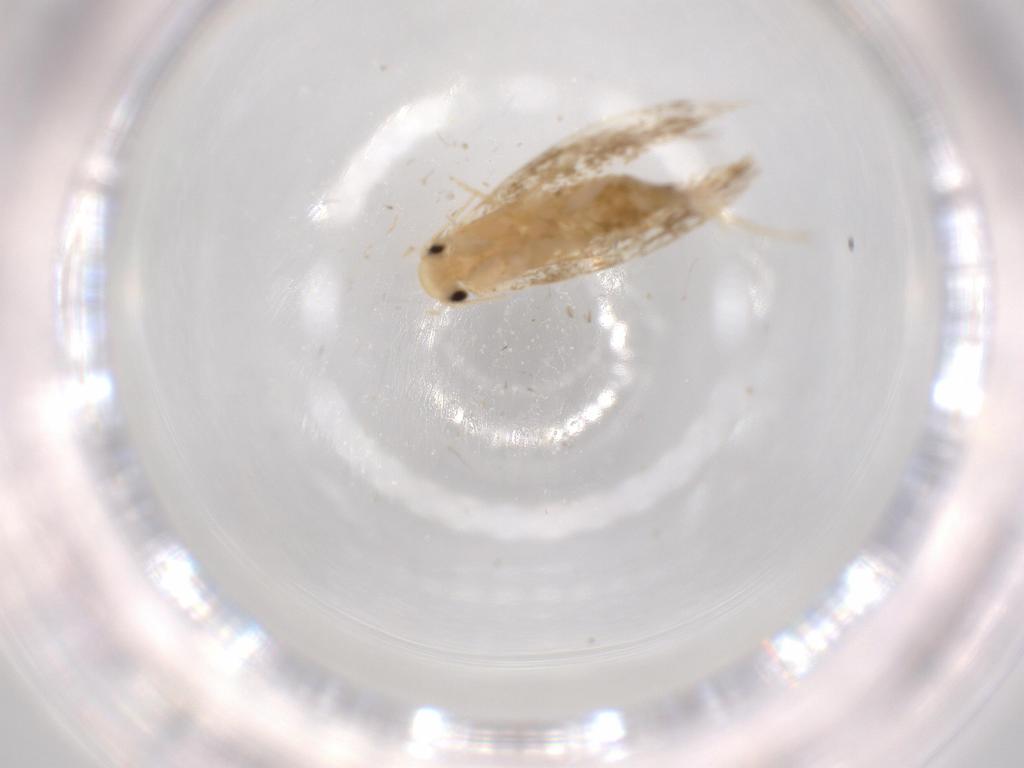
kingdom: Animalia
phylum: Arthropoda
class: Insecta
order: Lepidoptera
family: Tineidae
